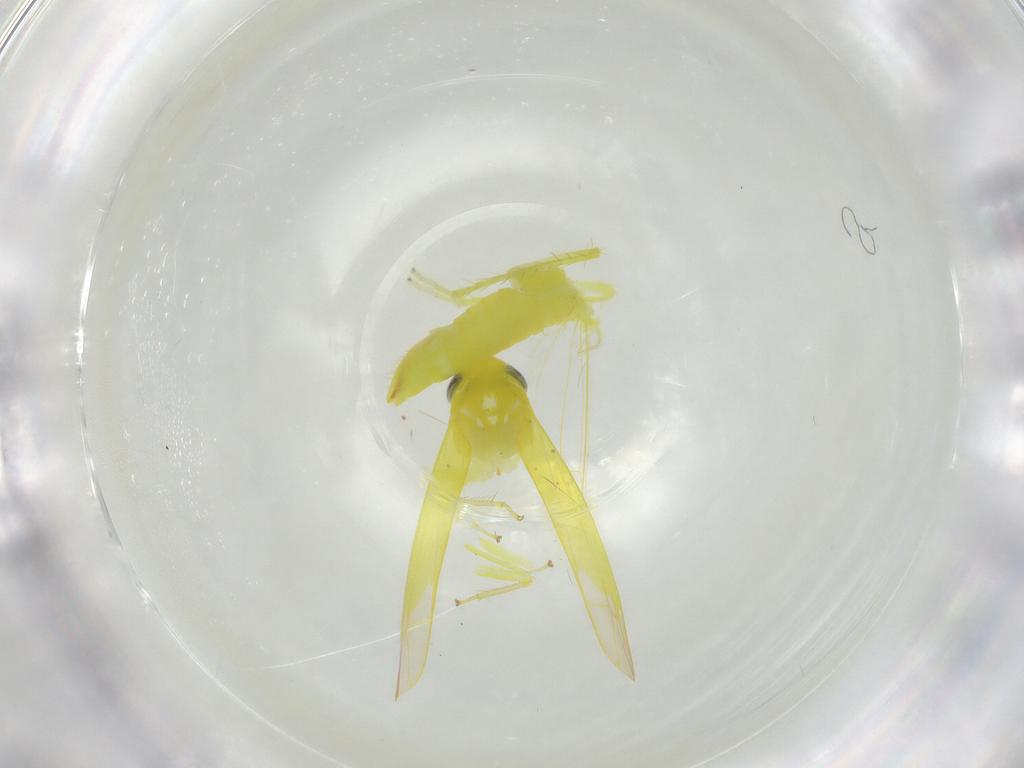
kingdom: Animalia
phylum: Arthropoda
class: Insecta
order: Hemiptera
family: Cicadellidae
